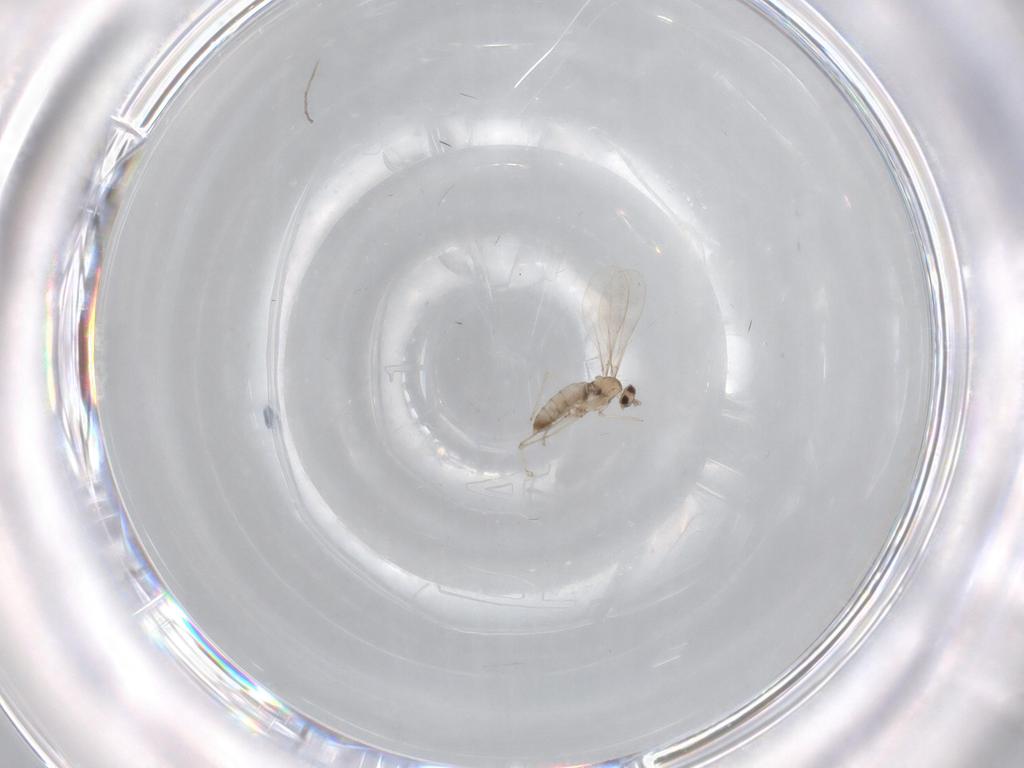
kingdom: Animalia
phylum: Arthropoda
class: Insecta
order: Diptera
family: Cecidomyiidae
